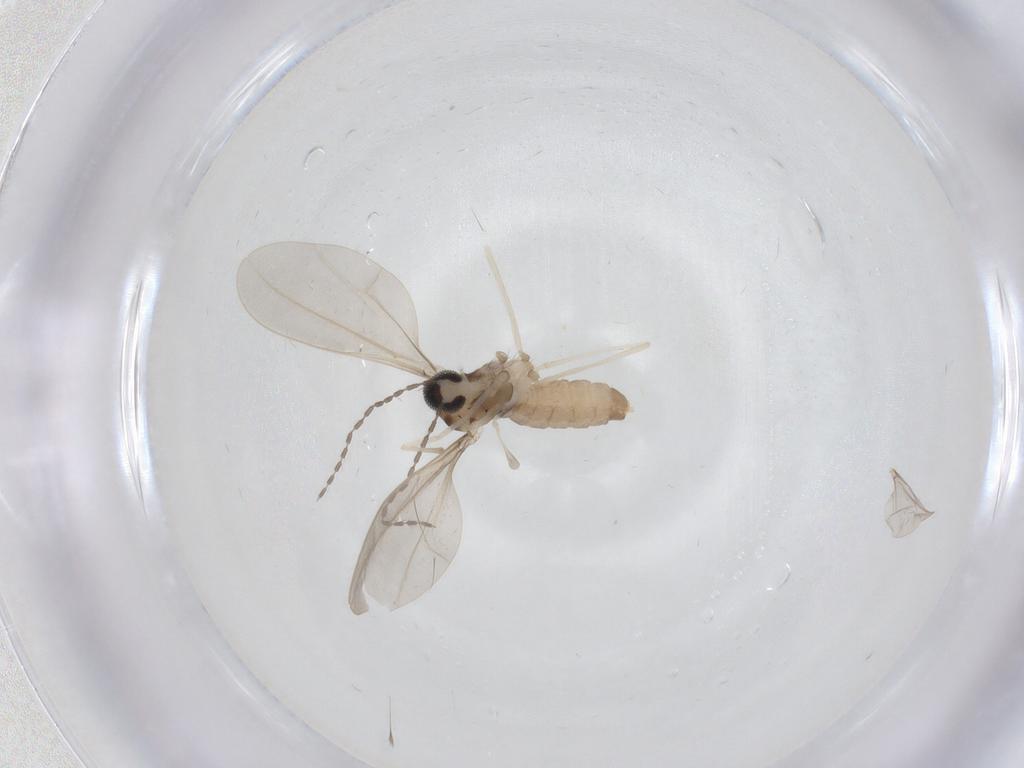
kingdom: Animalia
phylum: Arthropoda
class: Insecta
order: Diptera
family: Cecidomyiidae
